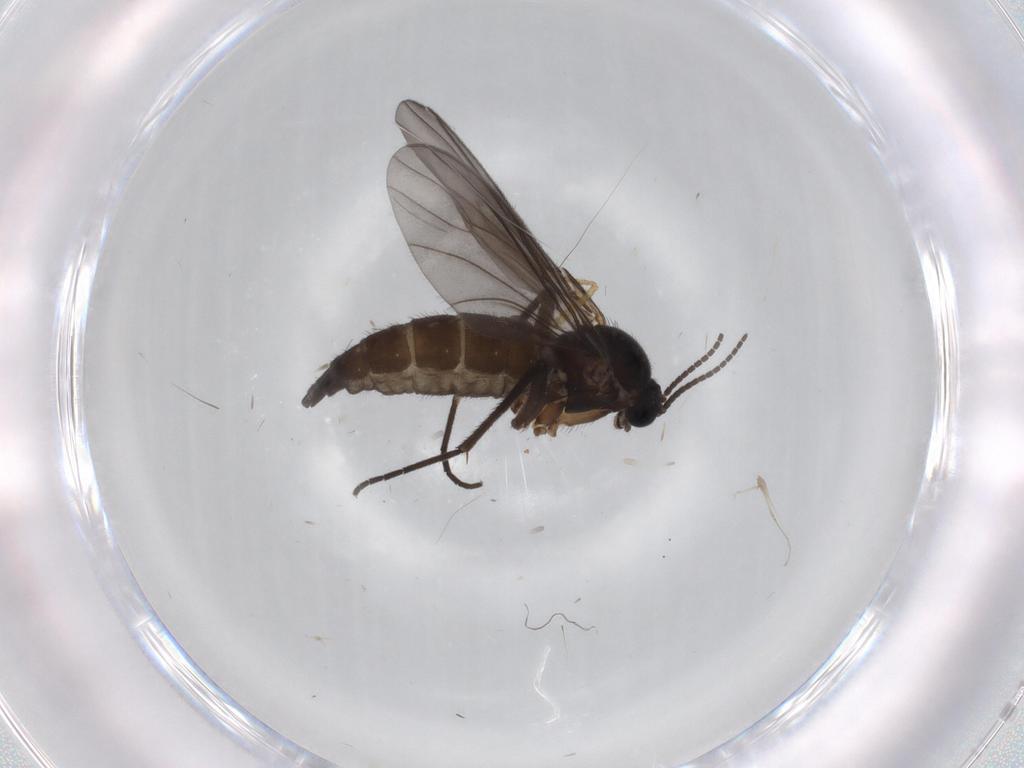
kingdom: Animalia
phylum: Arthropoda
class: Insecta
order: Diptera
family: Sciaridae
